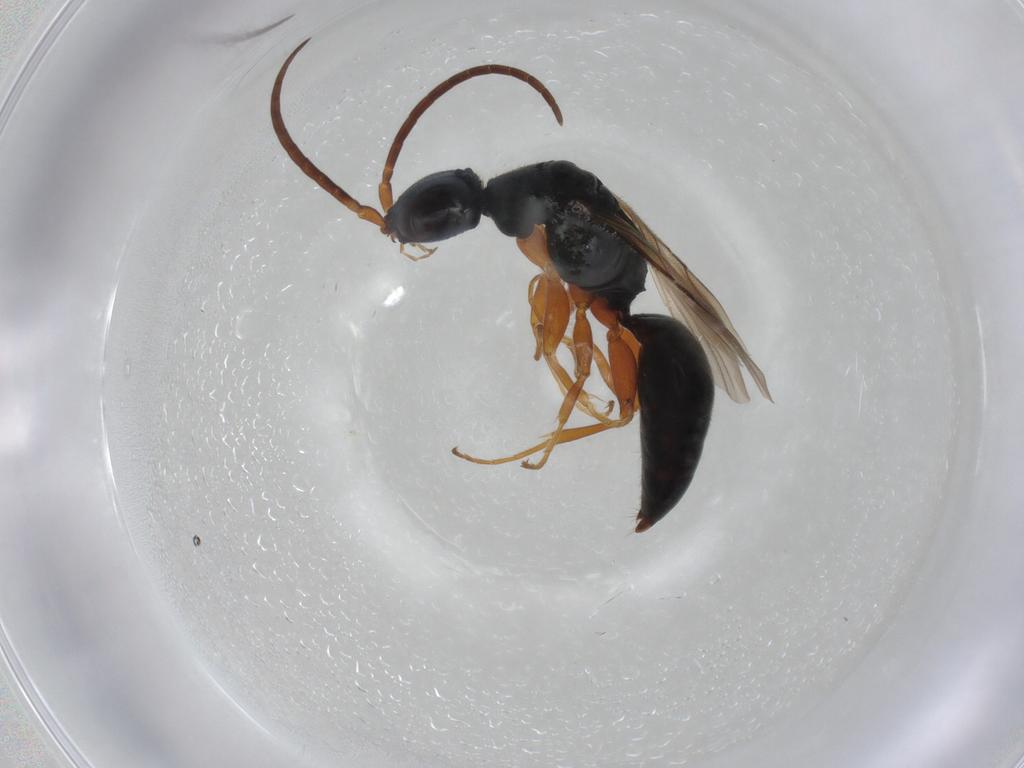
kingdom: Animalia
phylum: Arthropoda
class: Insecta
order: Hymenoptera
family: Bethylidae
